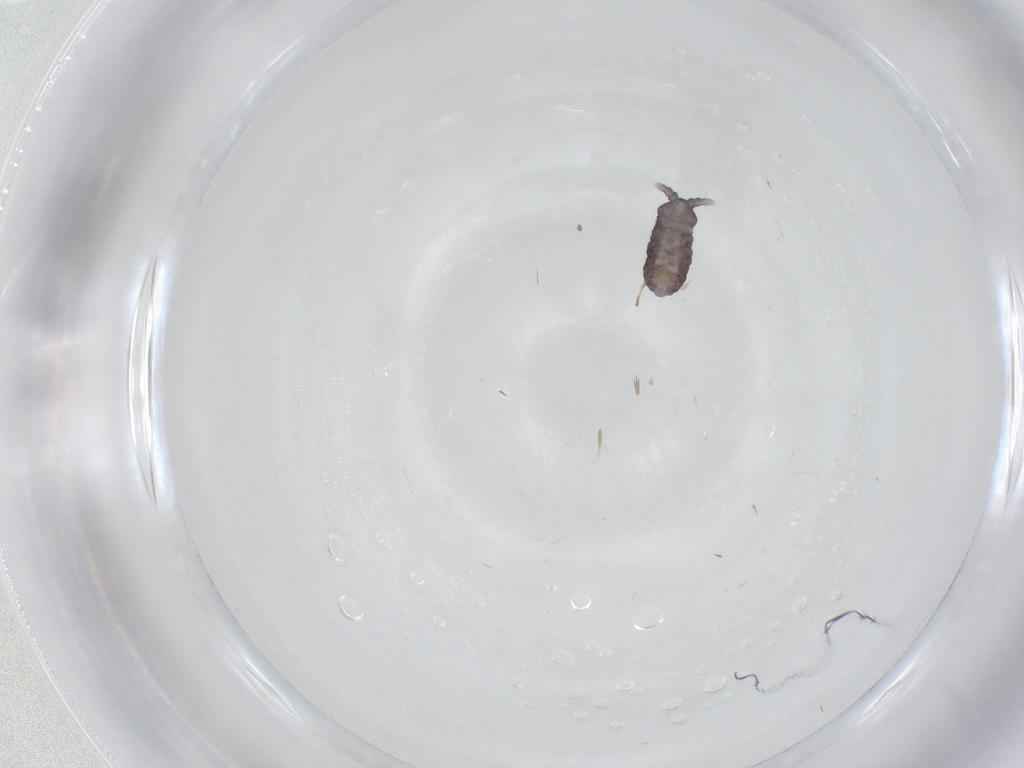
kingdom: Animalia
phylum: Arthropoda
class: Collembola
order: Poduromorpha
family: Neanuridae
